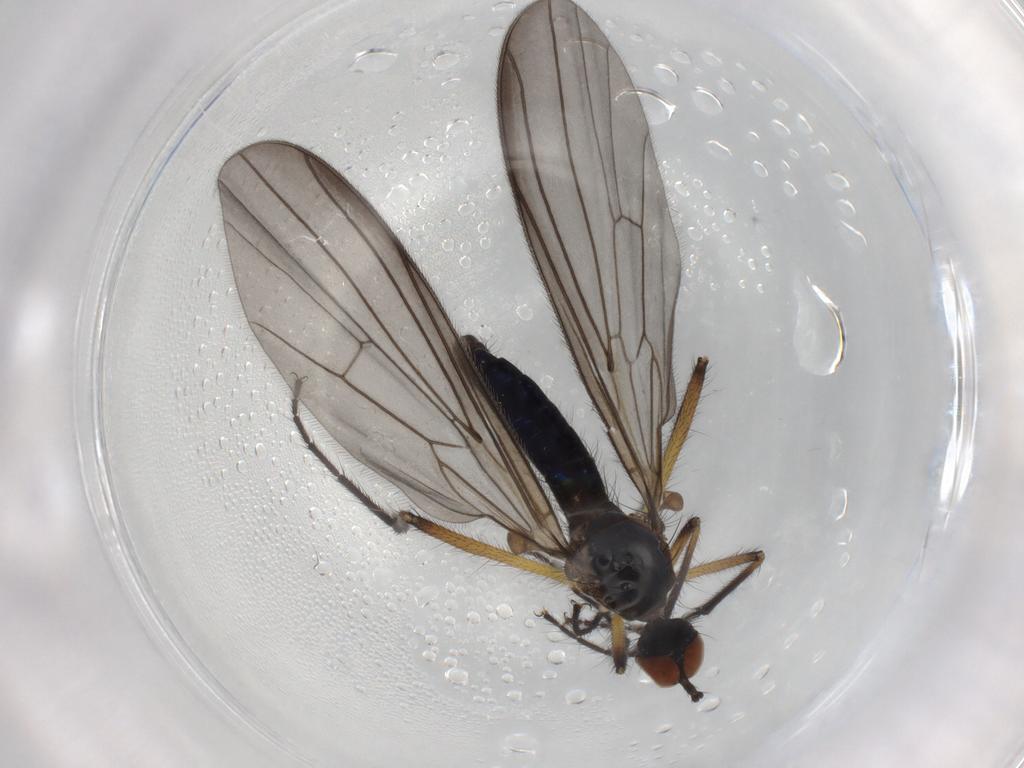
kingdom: Animalia
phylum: Arthropoda
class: Insecta
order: Diptera
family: Empididae
